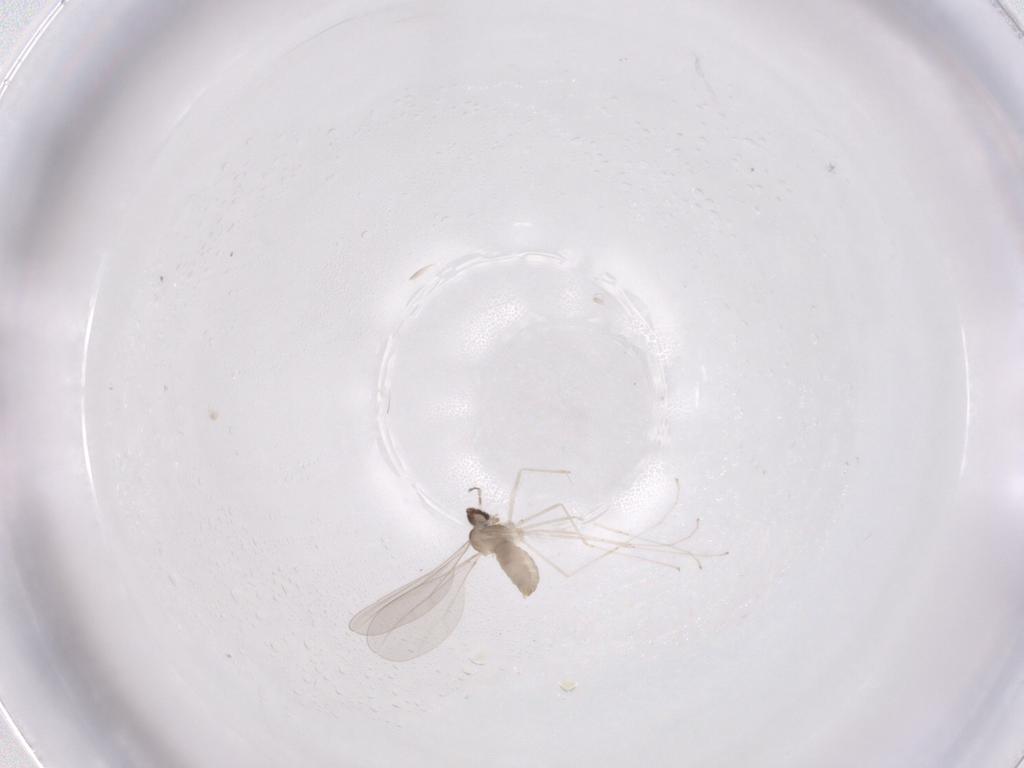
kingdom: Animalia
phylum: Arthropoda
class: Insecta
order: Diptera
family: Cecidomyiidae
